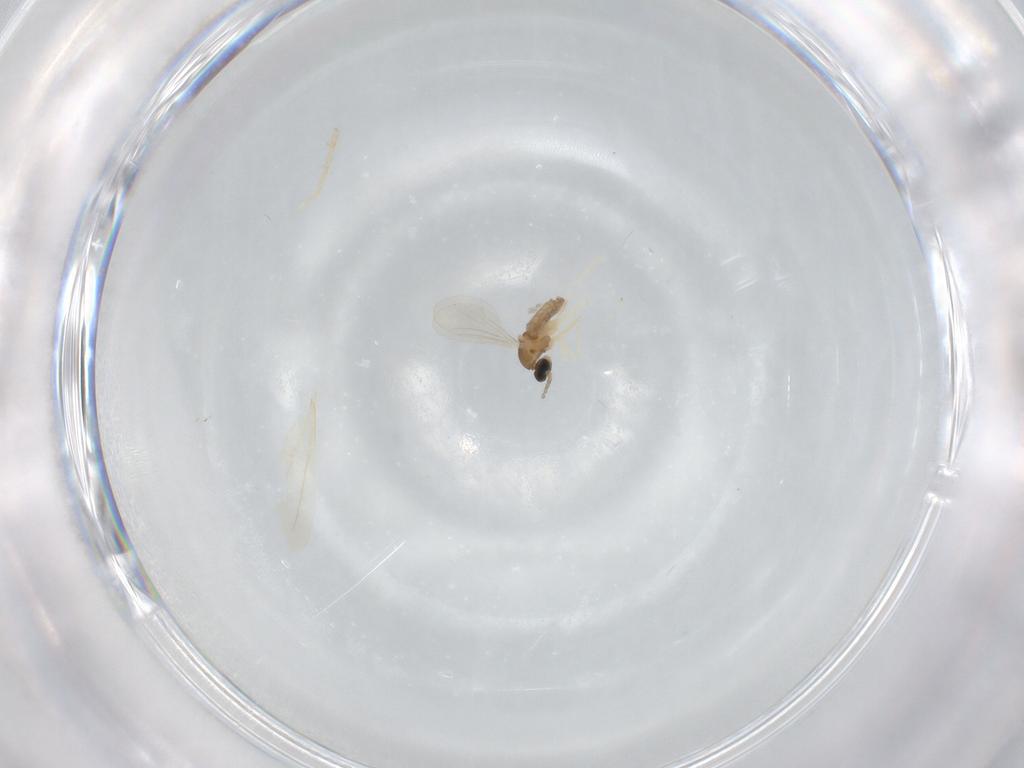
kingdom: Animalia
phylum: Arthropoda
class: Insecta
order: Diptera
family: Cecidomyiidae
